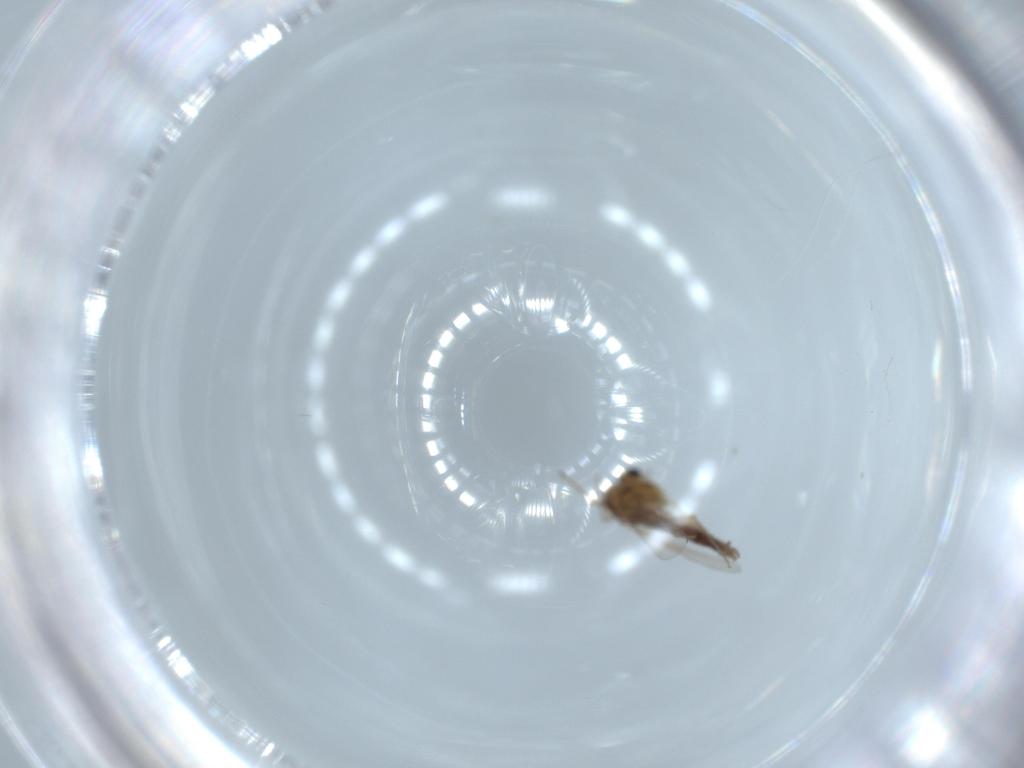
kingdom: Animalia
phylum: Arthropoda
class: Insecta
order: Diptera
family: Chironomidae
